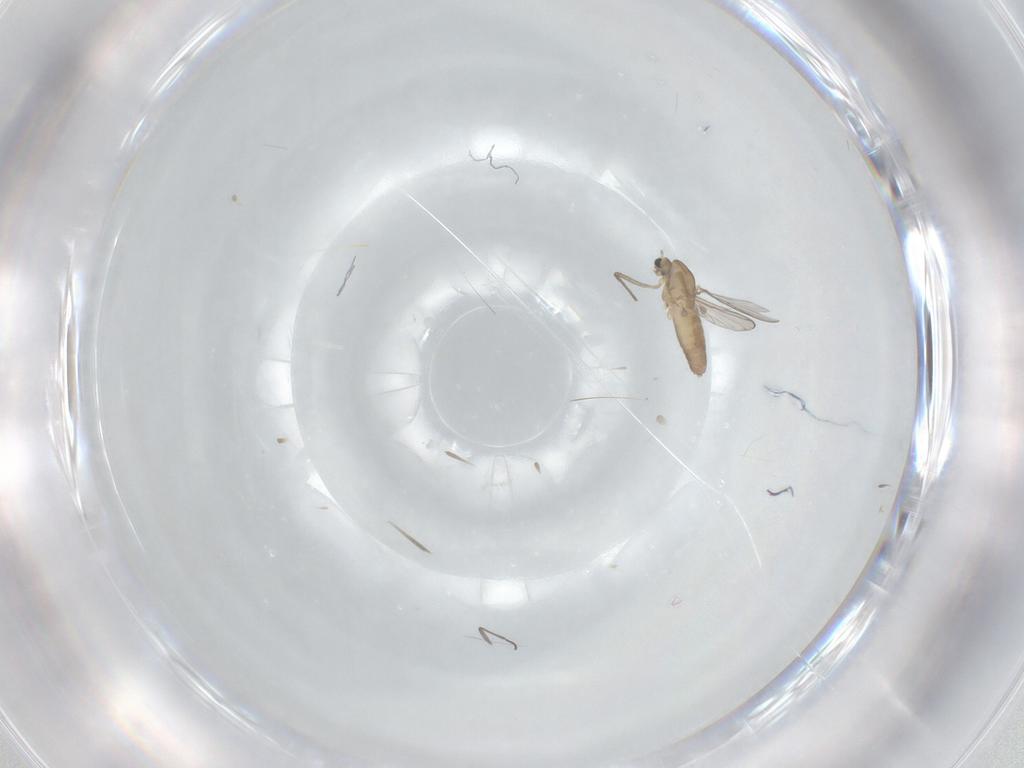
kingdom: Animalia
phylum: Arthropoda
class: Insecta
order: Diptera
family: Chironomidae
